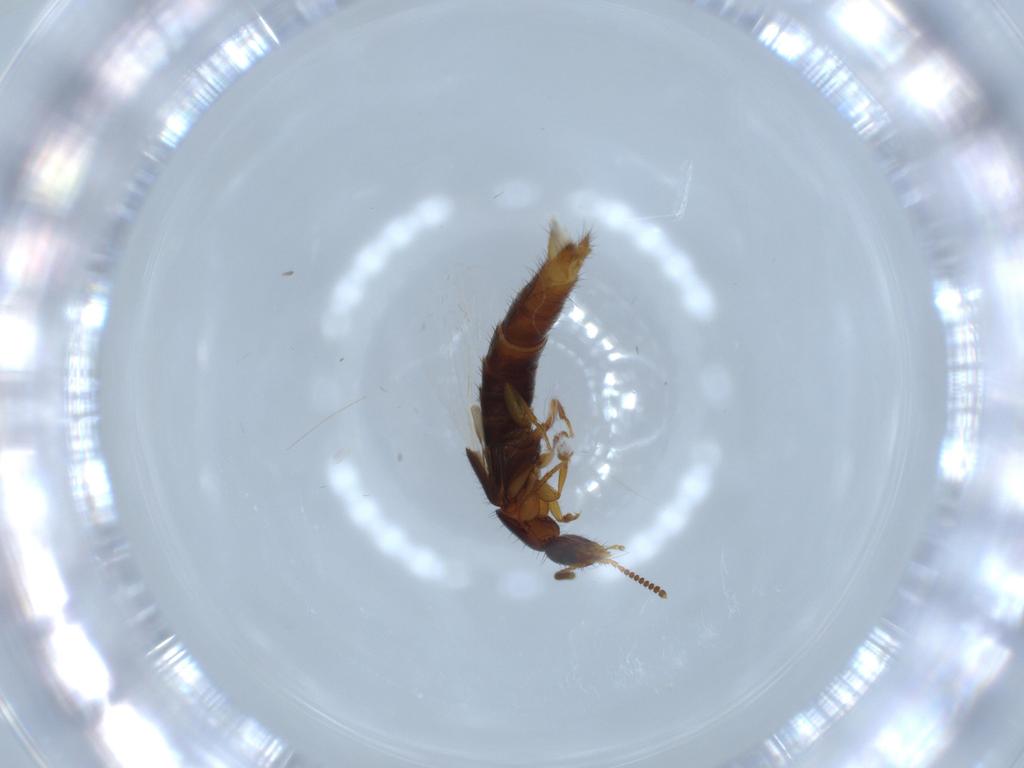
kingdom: Animalia
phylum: Arthropoda
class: Insecta
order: Coleoptera
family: Staphylinidae
